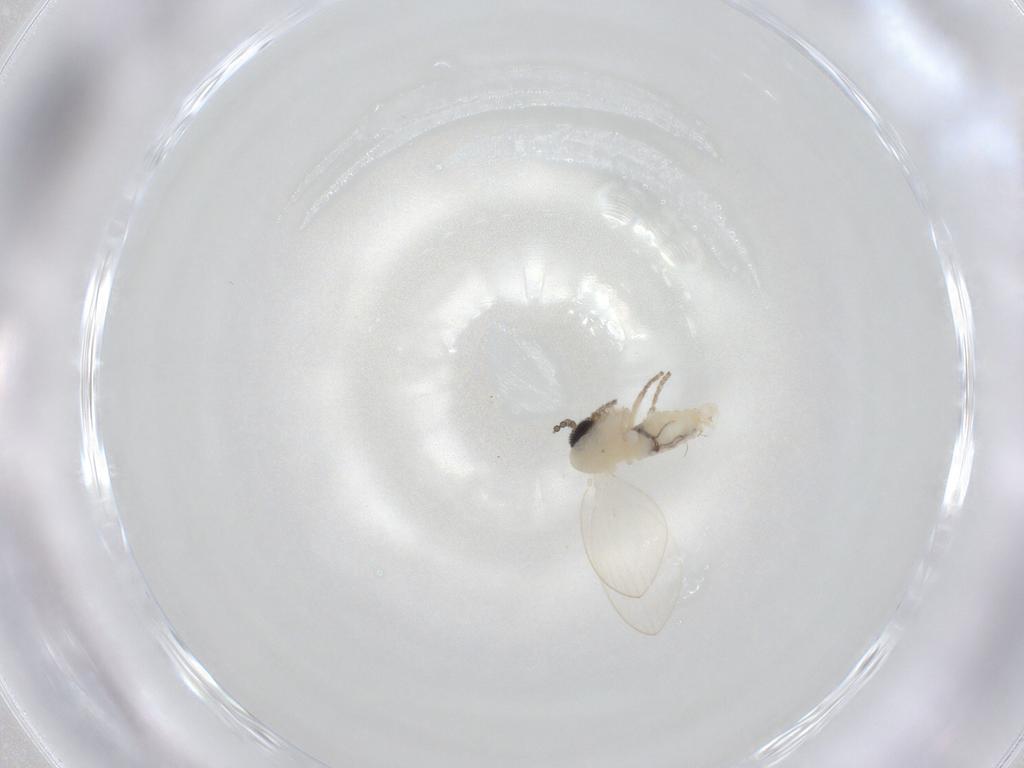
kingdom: Animalia
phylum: Arthropoda
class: Insecta
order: Diptera
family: Psychodidae
